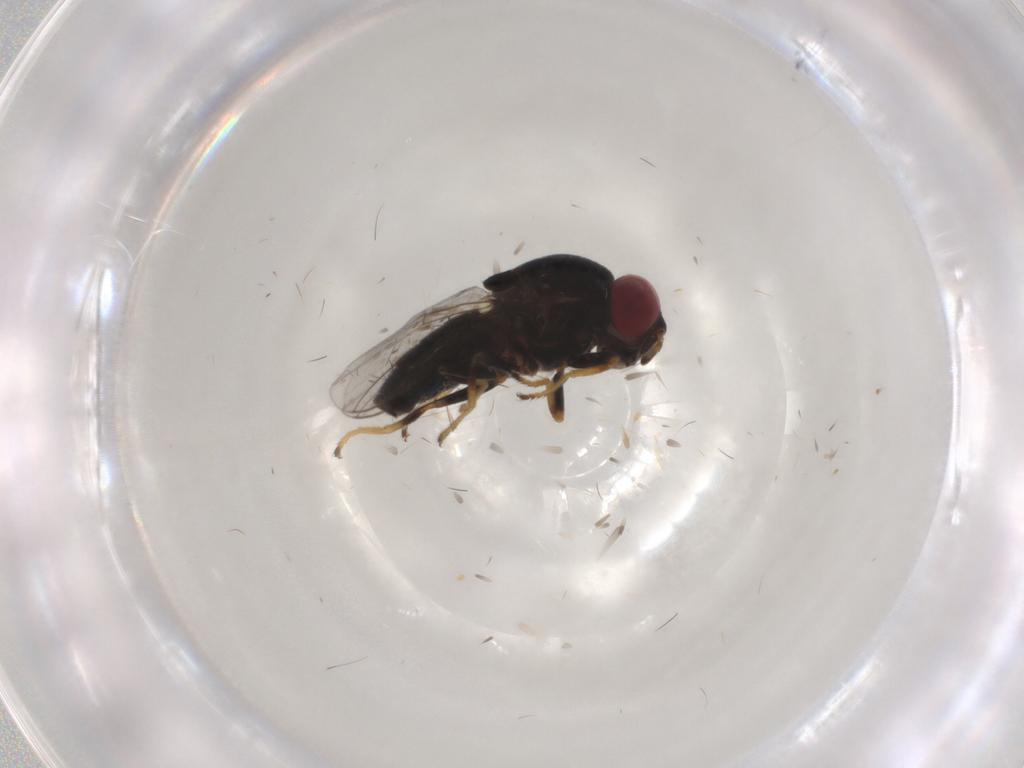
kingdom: Animalia
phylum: Arthropoda
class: Insecta
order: Diptera
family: Chloropidae
